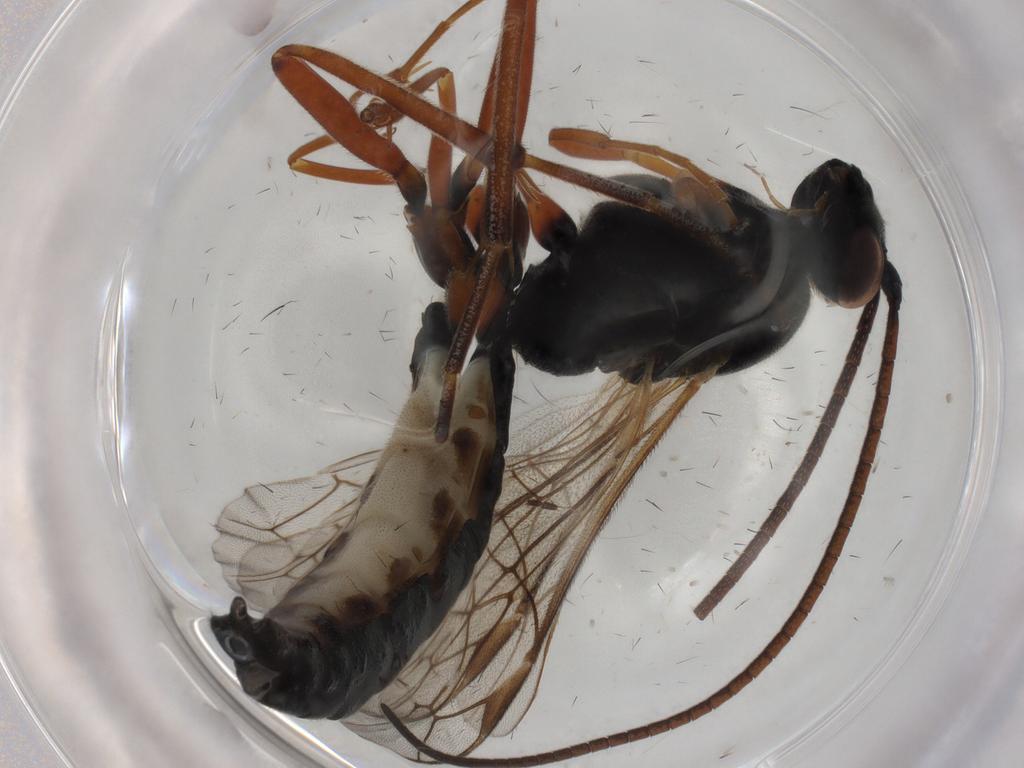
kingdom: Animalia
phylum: Arthropoda
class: Insecta
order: Hymenoptera
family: Ichneumonidae
